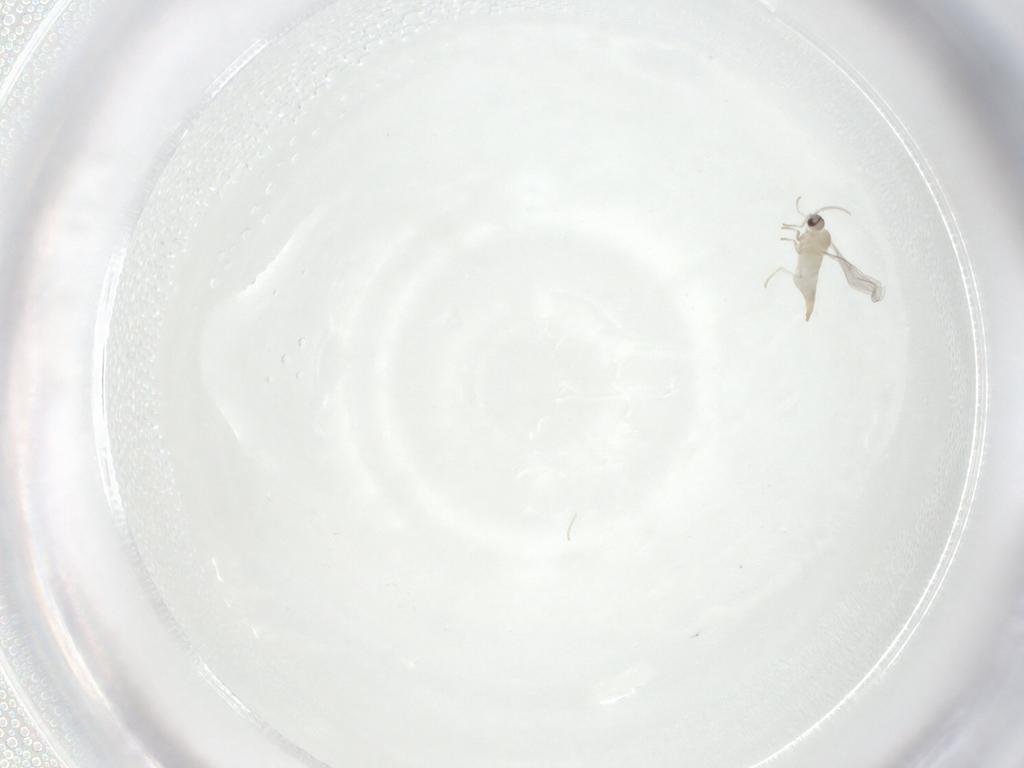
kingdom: Animalia
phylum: Arthropoda
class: Insecta
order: Diptera
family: Cecidomyiidae
